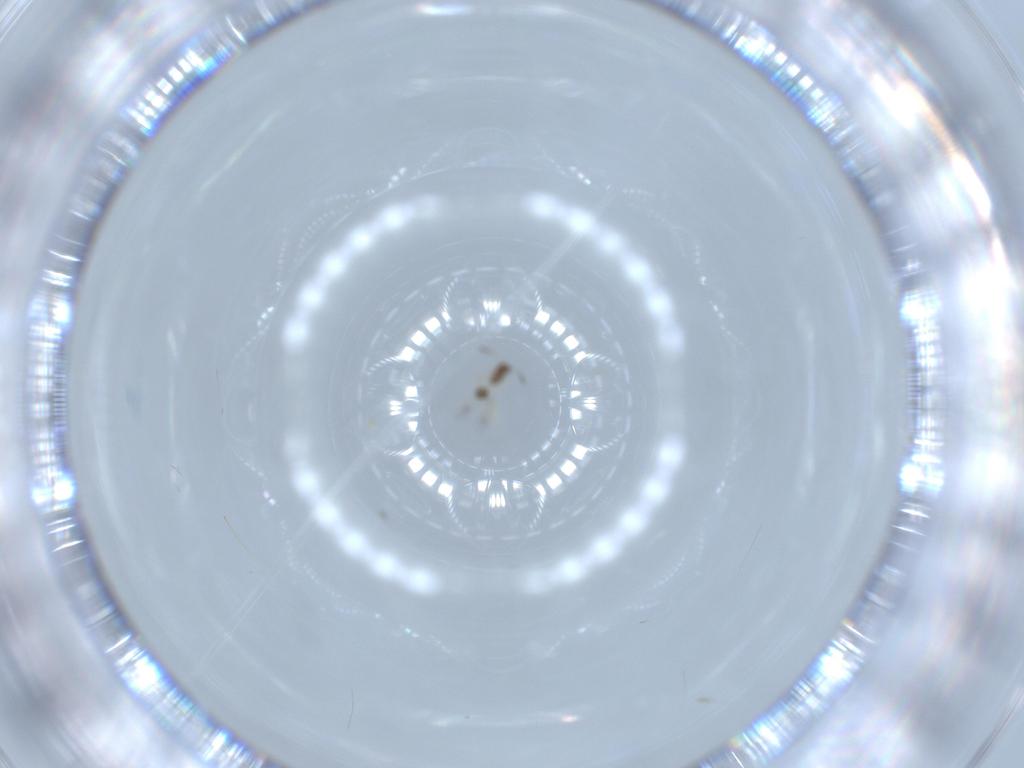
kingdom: Animalia
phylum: Arthropoda
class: Insecta
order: Hymenoptera
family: Mymarommatidae
